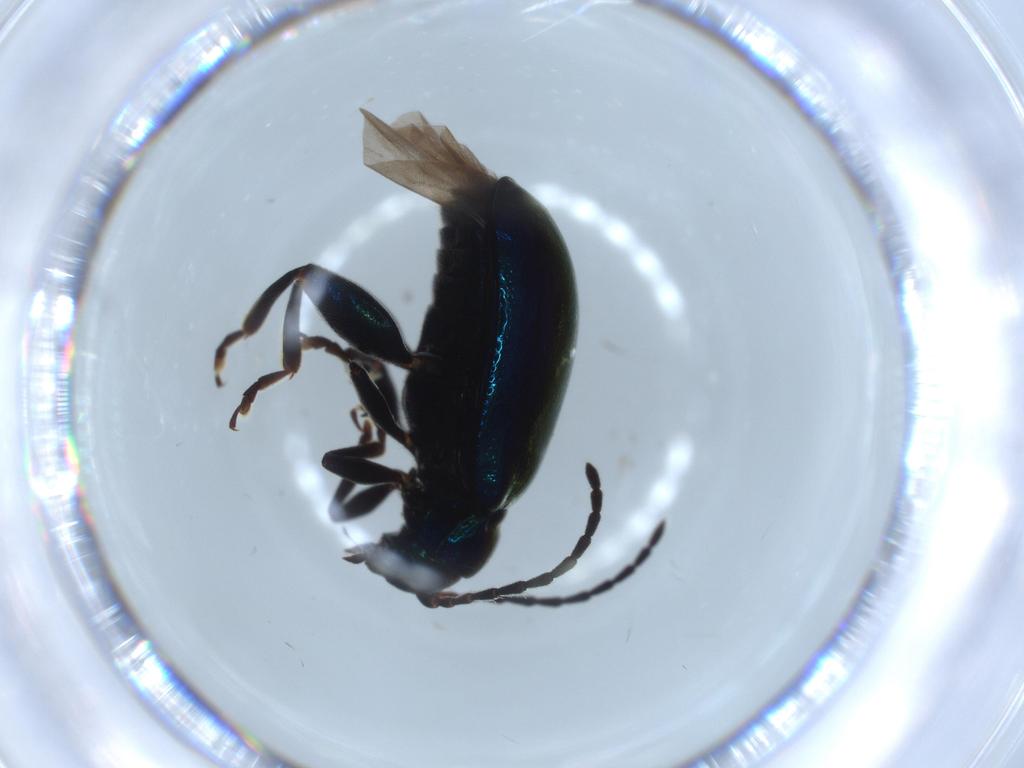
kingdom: Animalia
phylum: Arthropoda
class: Insecta
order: Coleoptera
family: Coccinellidae
